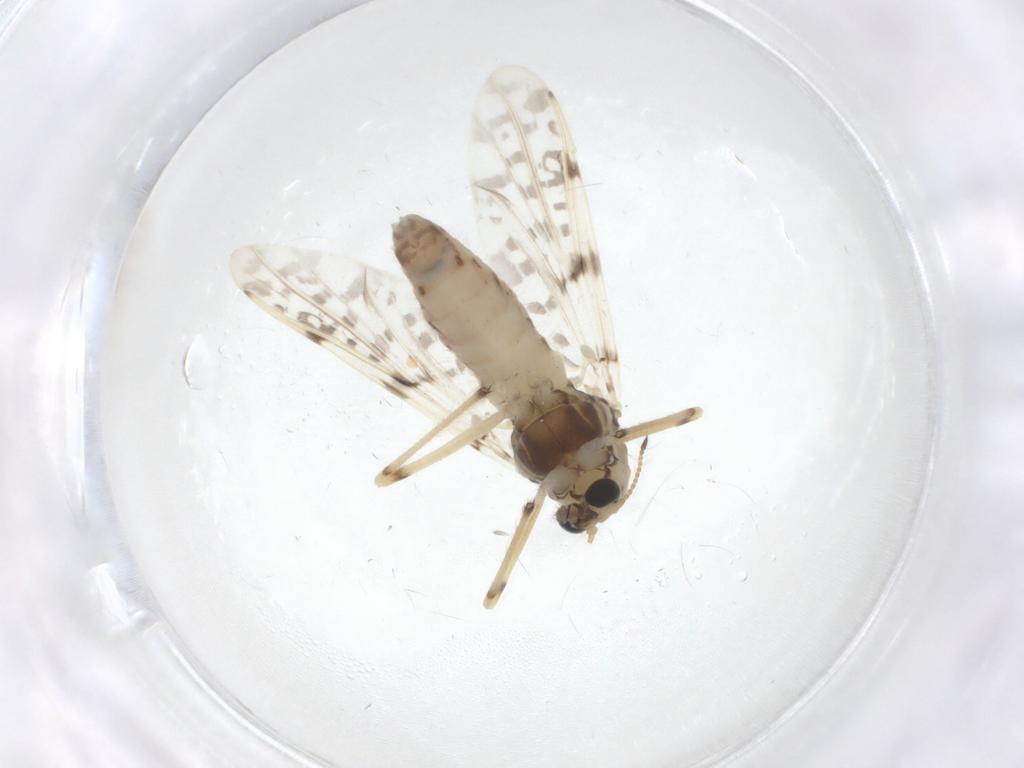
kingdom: Animalia
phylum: Arthropoda
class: Insecta
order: Diptera
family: Chironomidae
